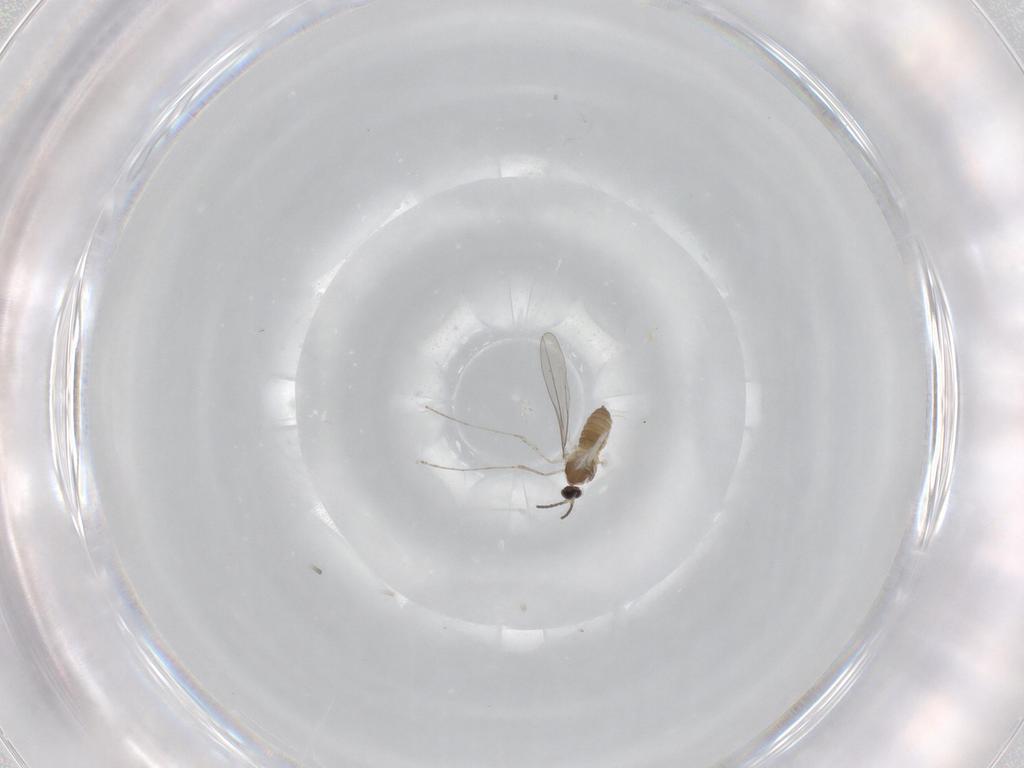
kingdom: Animalia
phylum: Arthropoda
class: Insecta
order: Diptera
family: Cecidomyiidae
